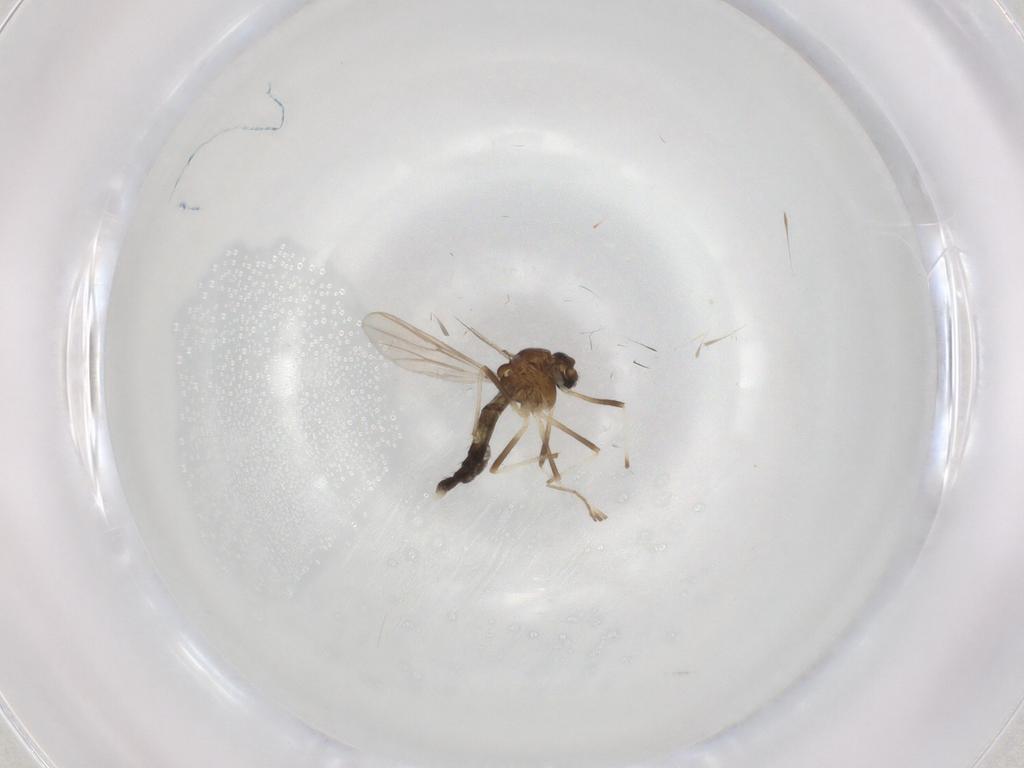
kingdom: Animalia
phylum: Arthropoda
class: Insecta
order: Diptera
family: Chironomidae
